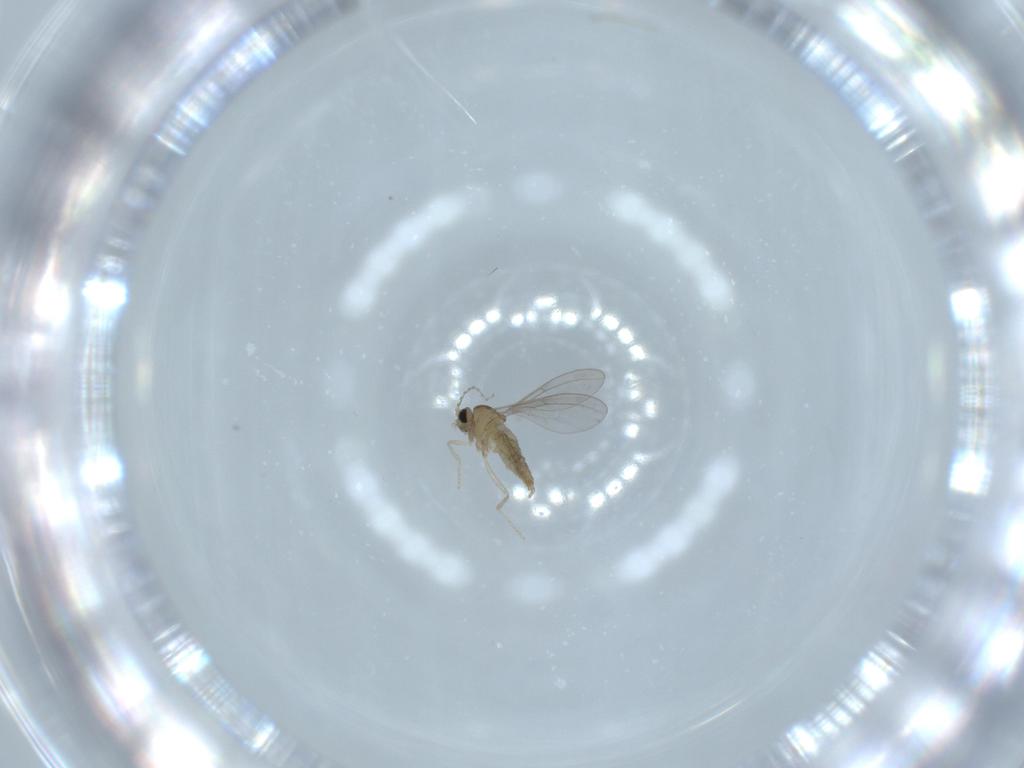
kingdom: Animalia
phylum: Arthropoda
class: Insecta
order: Diptera
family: Cecidomyiidae
